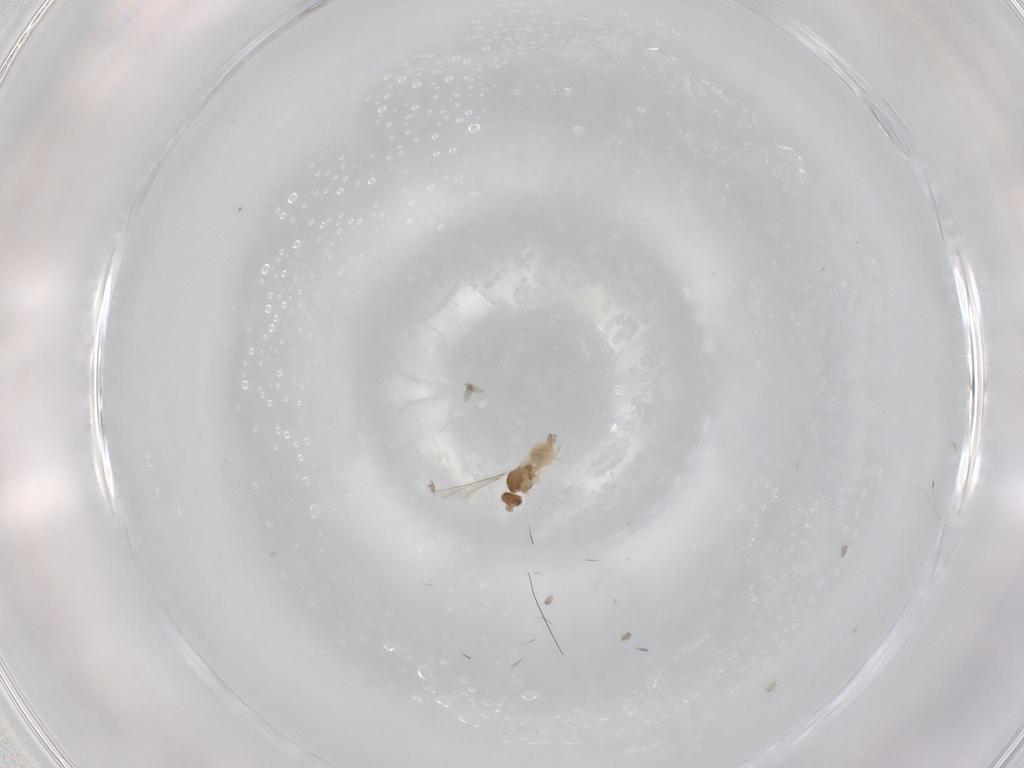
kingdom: Animalia
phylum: Arthropoda
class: Insecta
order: Diptera
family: Cecidomyiidae
